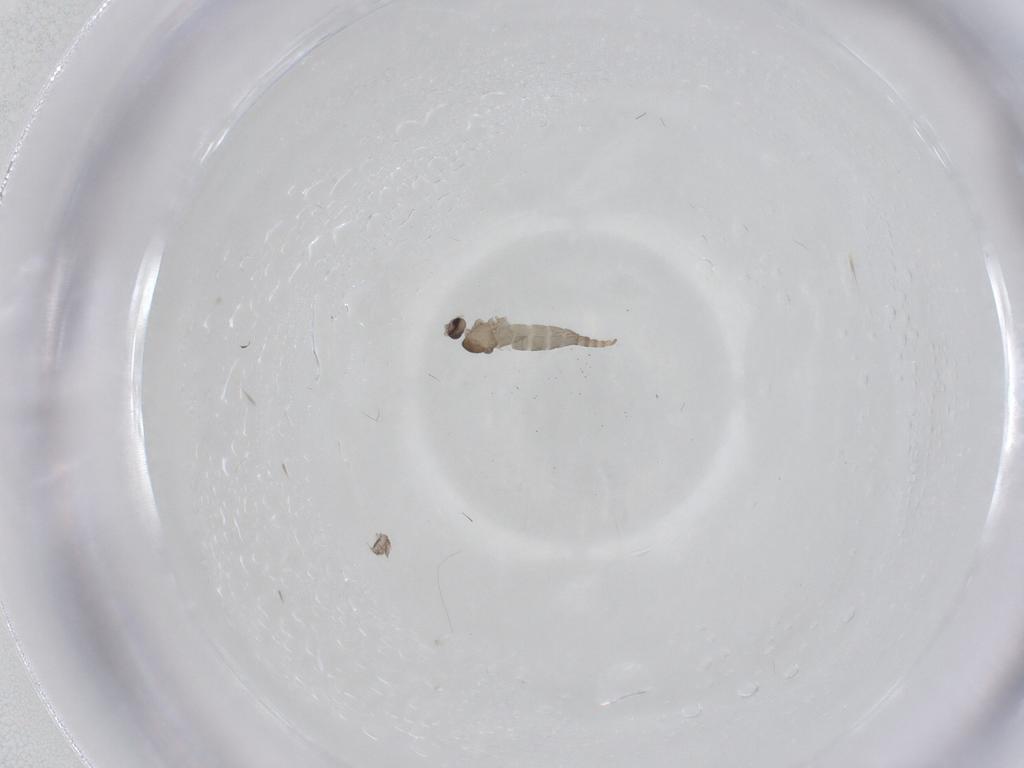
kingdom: Animalia
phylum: Arthropoda
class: Insecta
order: Diptera
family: Cecidomyiidae
